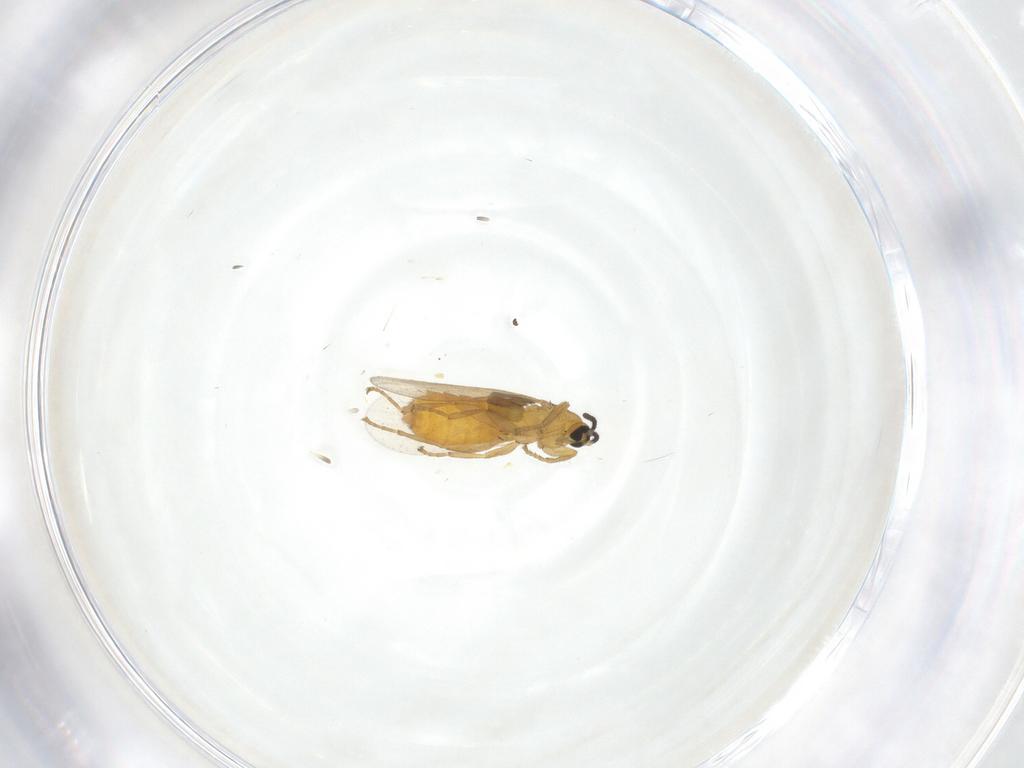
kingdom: Animalia
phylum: Arthropoda
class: Insecta
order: Diptera
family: Scatopsidae
